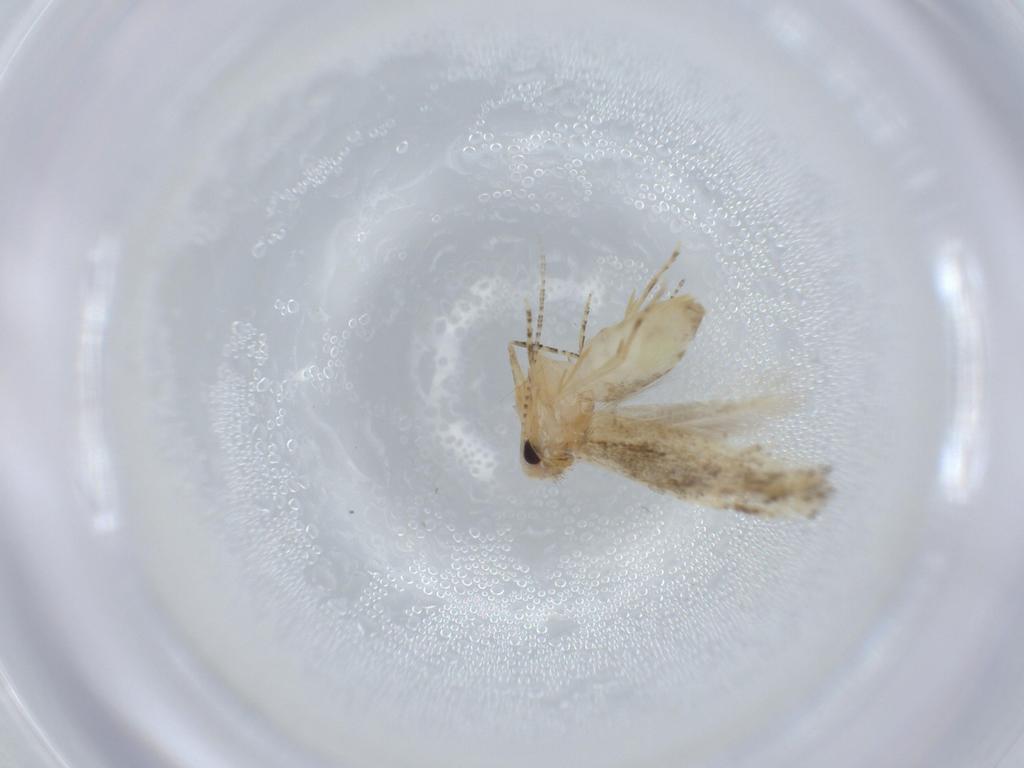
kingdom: Animalia
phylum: Arthropoda
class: Insecta
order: Lepidoptera
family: Bucculatricidae
